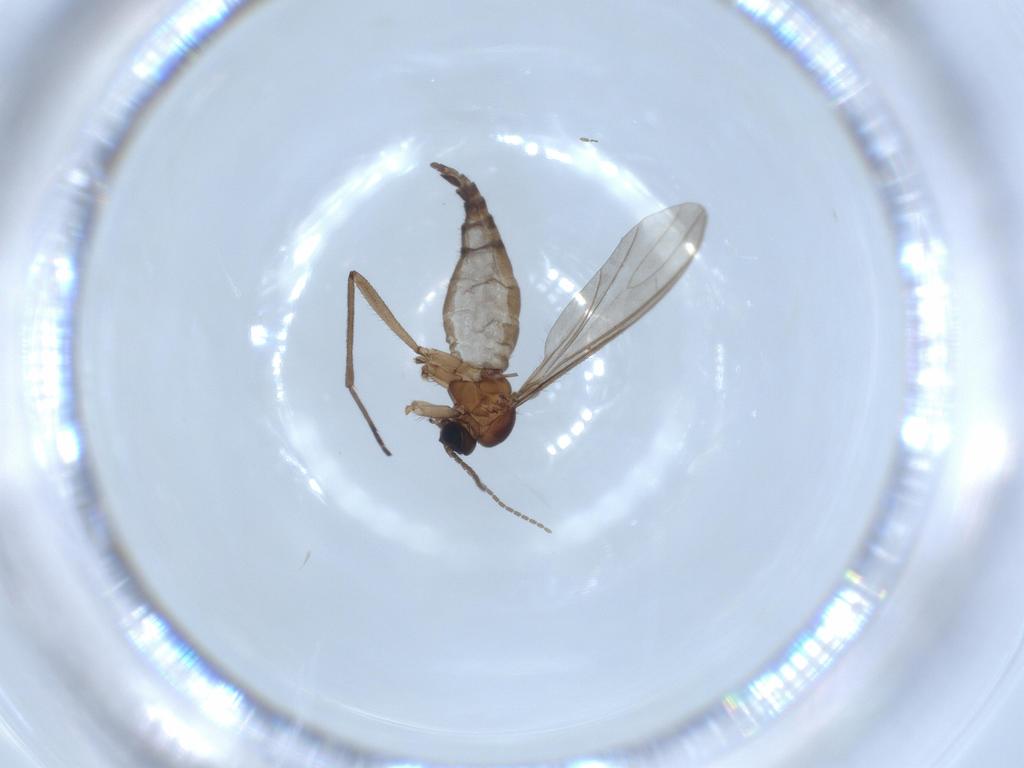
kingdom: Animalia
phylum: Arthropoda
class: Insecta
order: Diptera
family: Sciaridae
